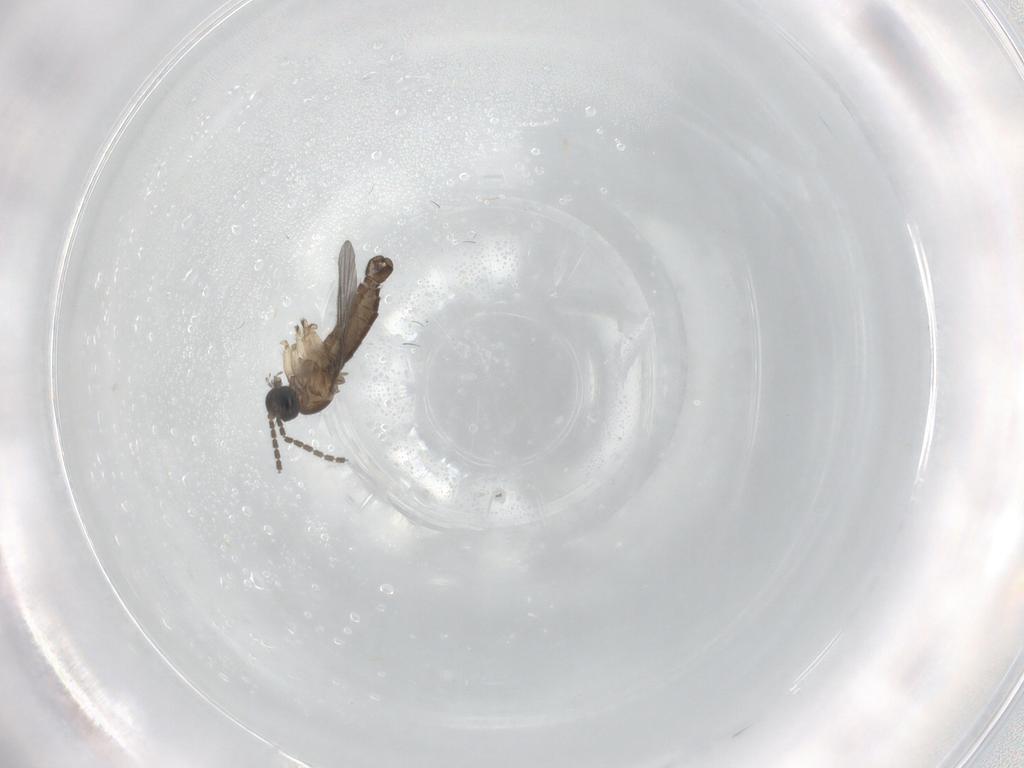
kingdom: Animalia
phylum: Arthropoda
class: Insecta
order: Diptera
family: Sciaridae
